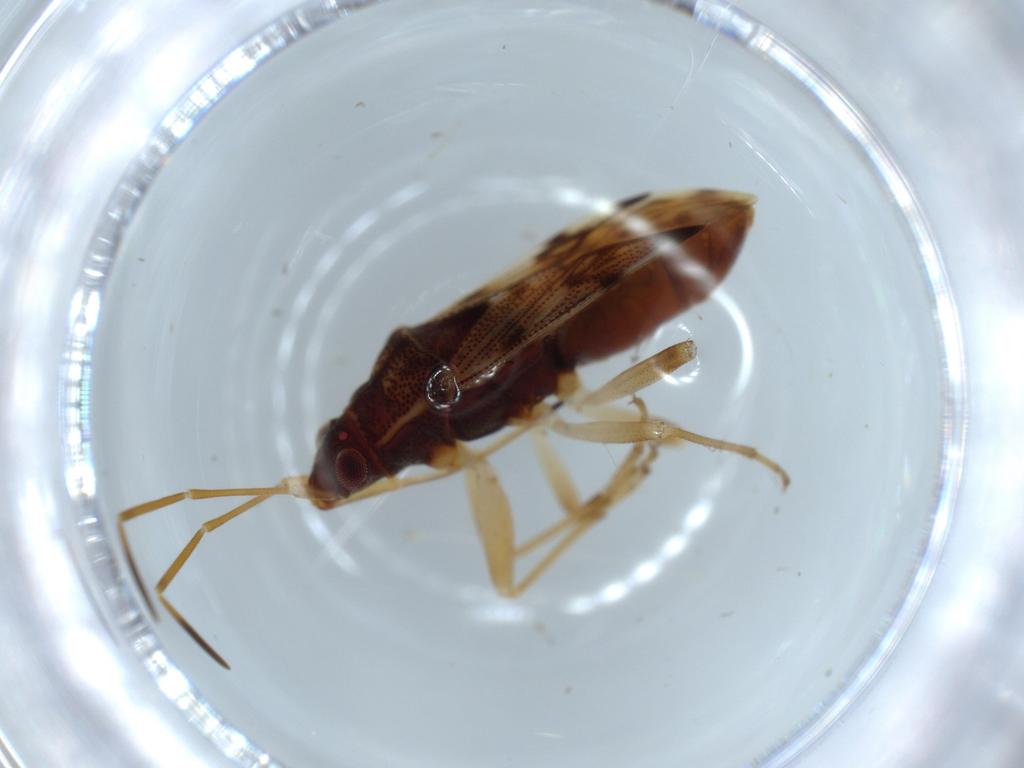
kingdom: Animalia
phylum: Arthropoda
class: Insecta
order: Hemiptera
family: Rhyparochromidae
